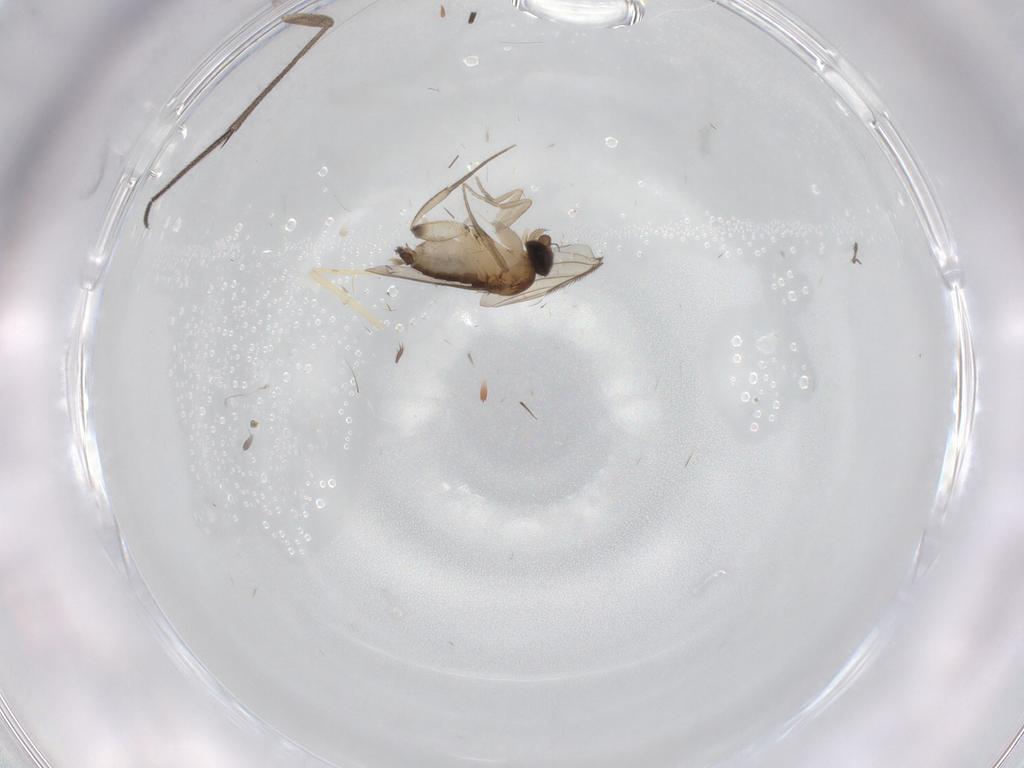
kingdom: Animalia
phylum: Arthropoda
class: Insecta
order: Diptera
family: Phoridae
